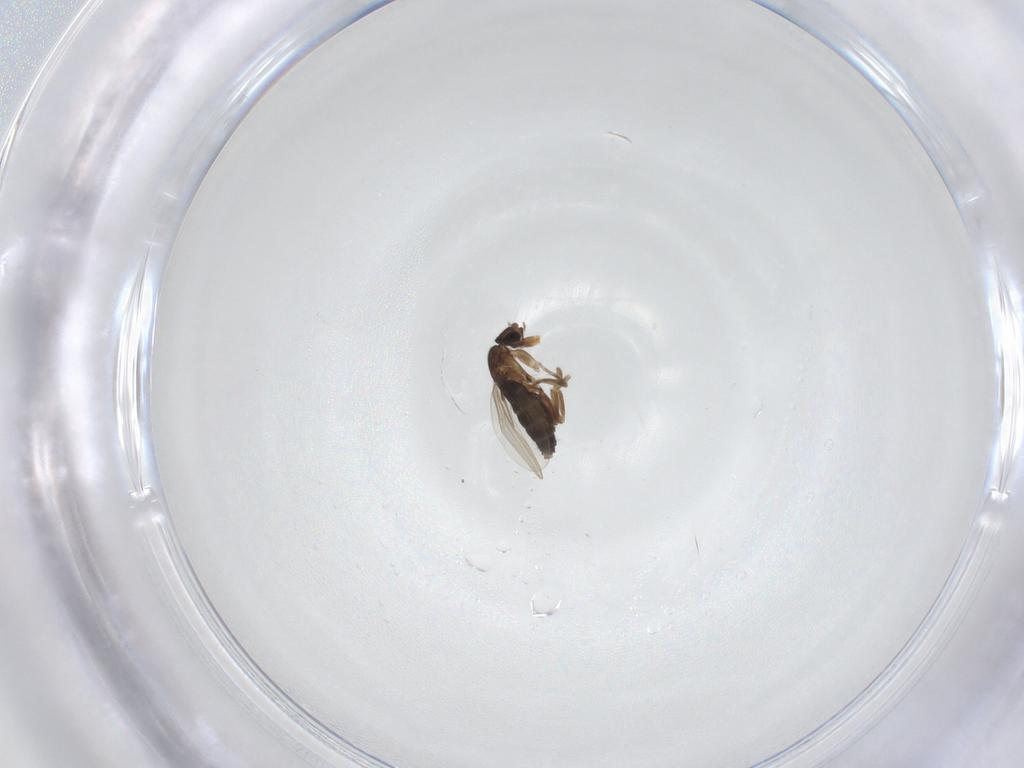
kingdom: Animalia
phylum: Arthropoda
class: Insecta
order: Diptera
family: Phoridae
